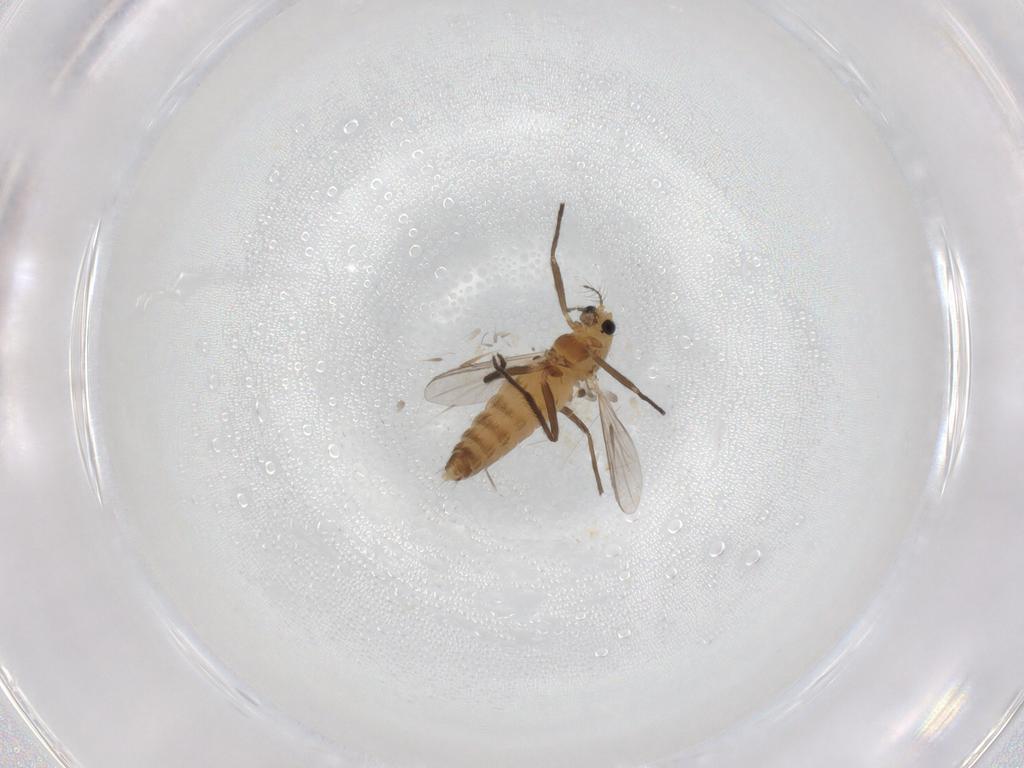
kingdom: Animalia
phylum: Arthropoda
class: Insecta
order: Diptera
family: Chironomidae
